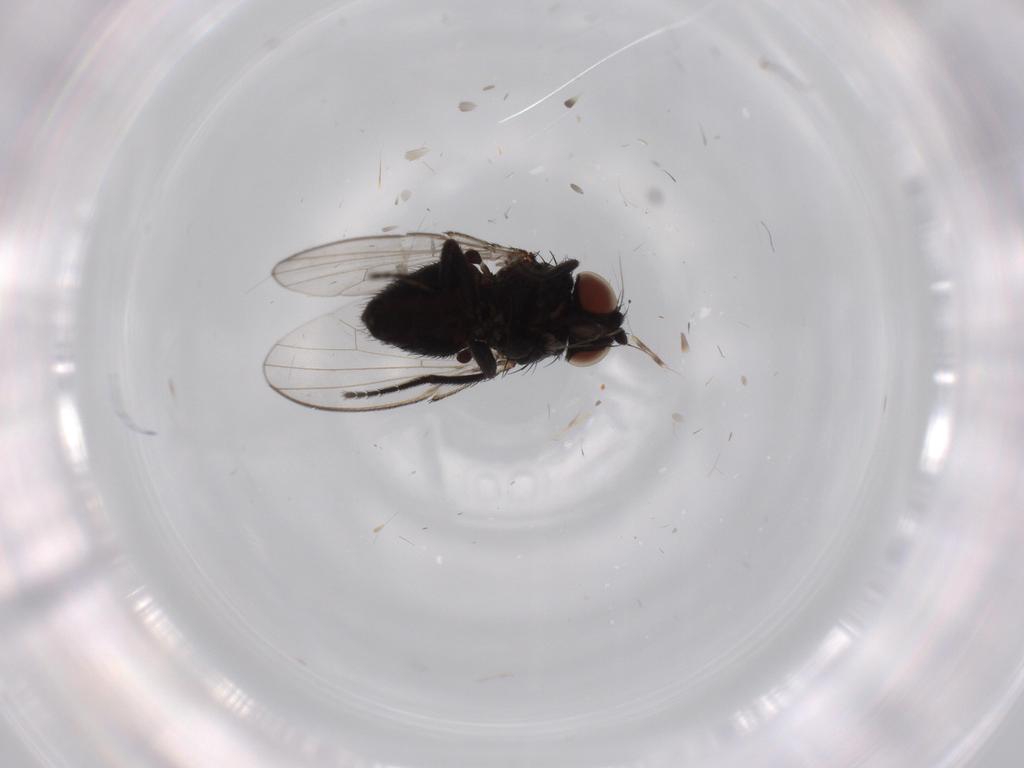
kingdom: Animalia
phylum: Arthropoda
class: Insecta
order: Diptera
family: Milichiidae
